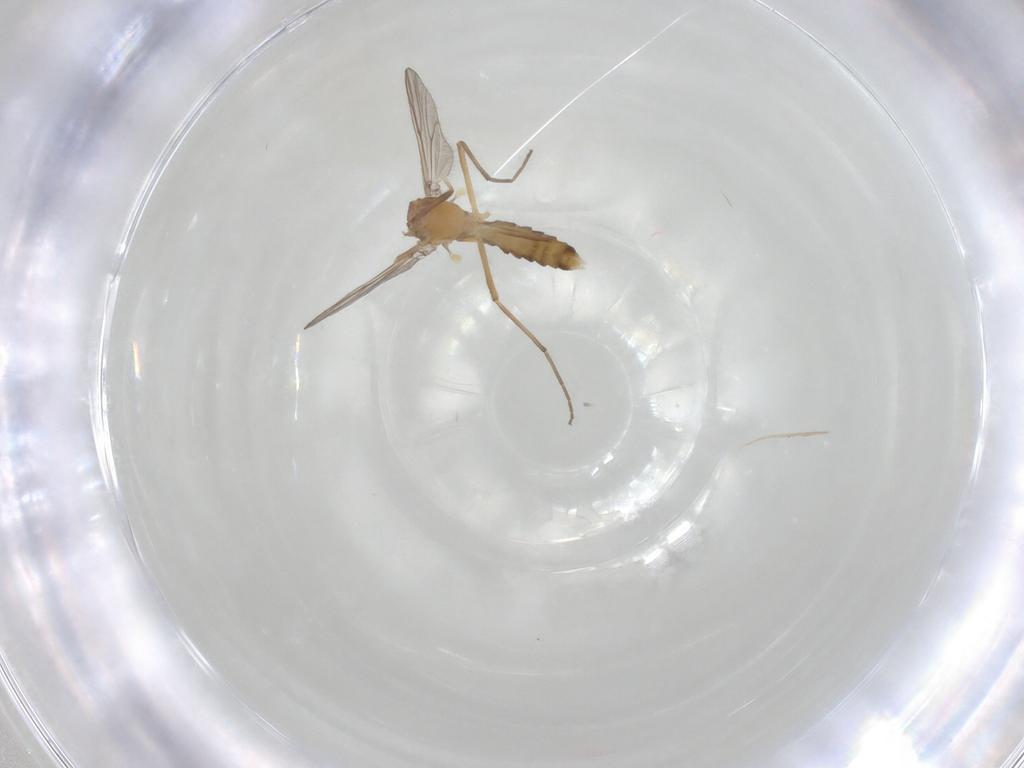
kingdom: Animalia
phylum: Arthropoda
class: Insecta
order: Diptera
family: Chironomidae
